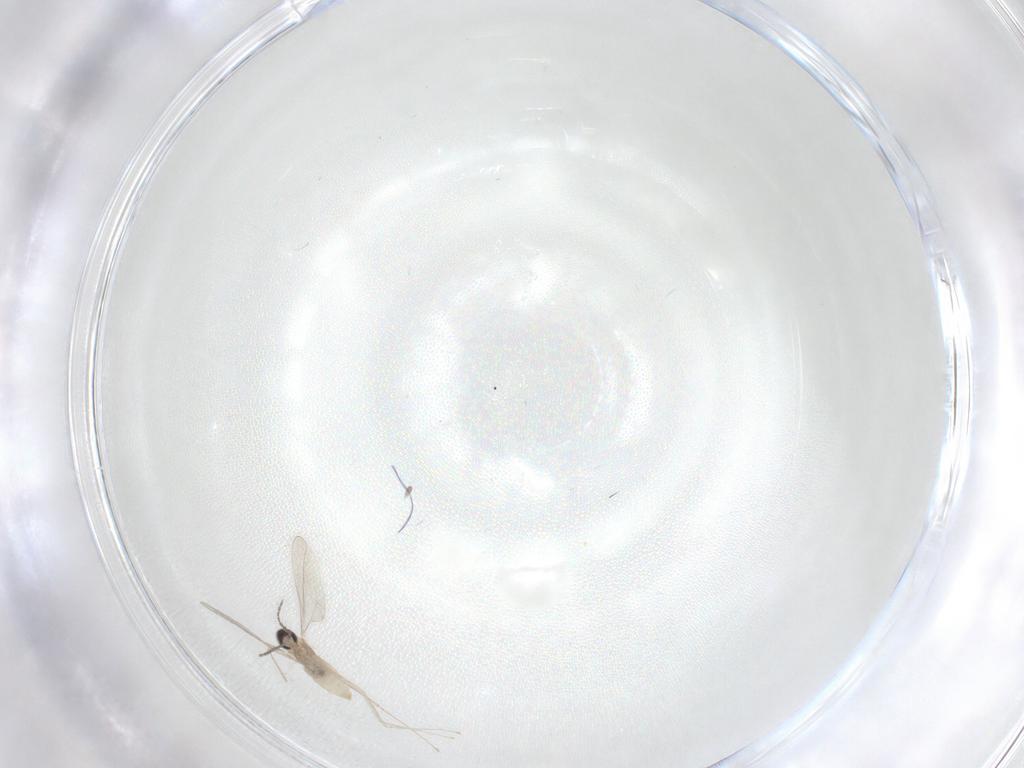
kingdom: Animalia
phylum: Arthropoda
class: Insecta
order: Diptera
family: Cecidomyiidae
